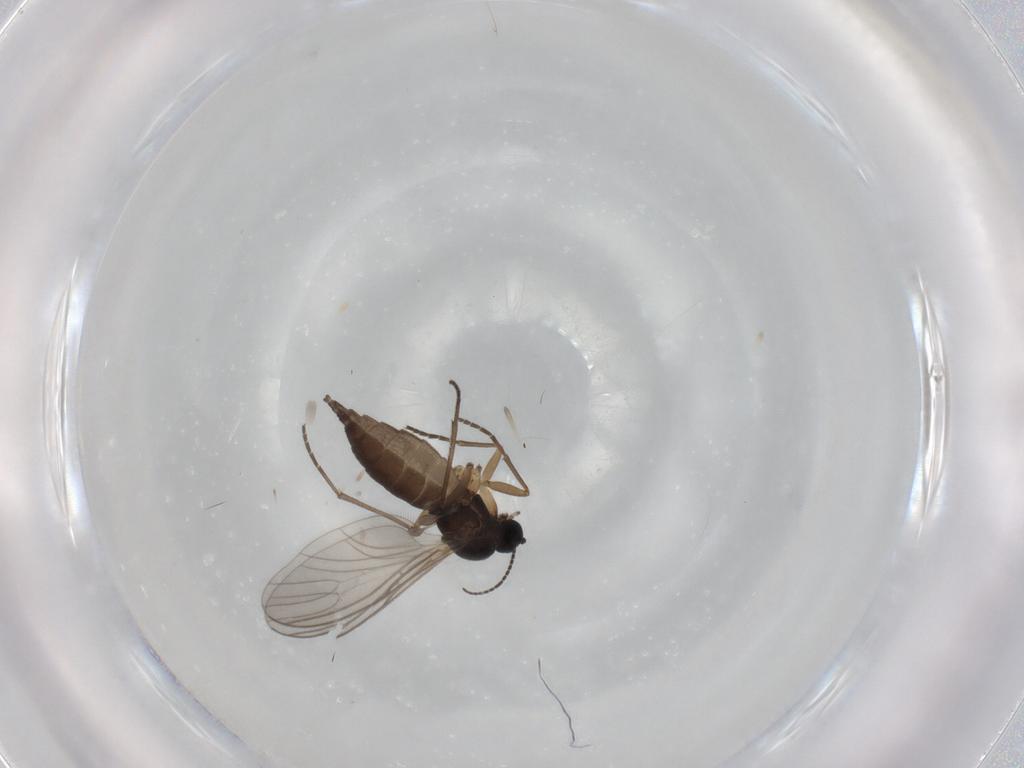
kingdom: Animalia
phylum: Arthropoda
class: Insecta
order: Diptera
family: Sciaridae
